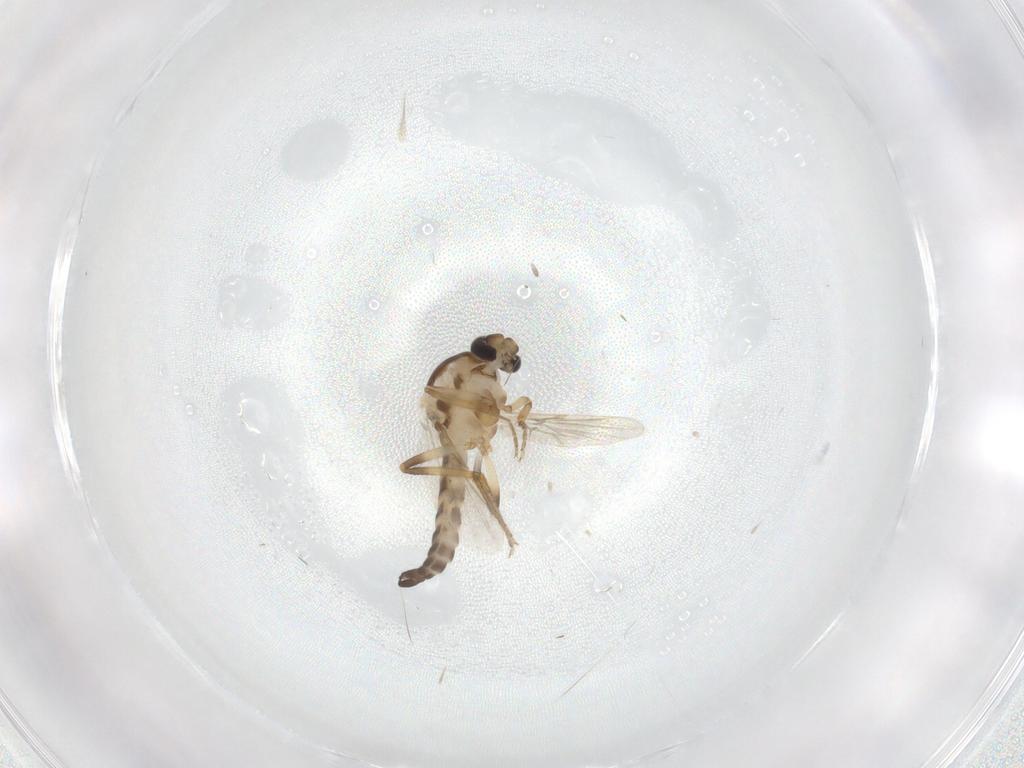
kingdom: Animalia
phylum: Arthropoda
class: Insecta
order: Diptera
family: Ceratopogonidae
